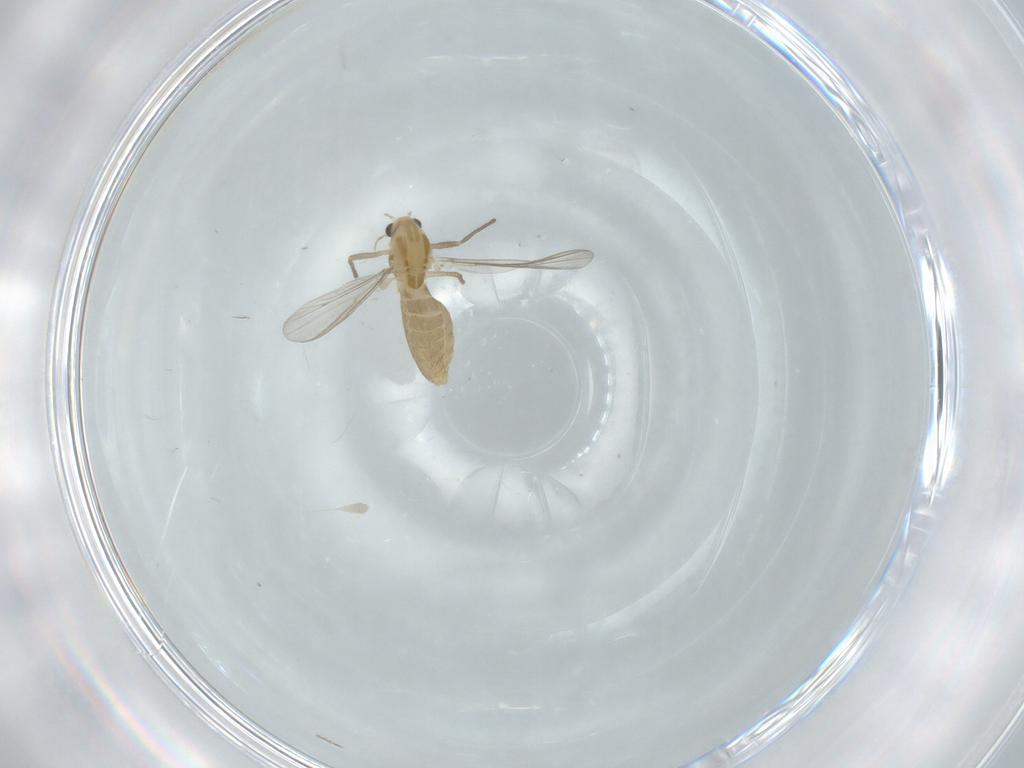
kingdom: Animalia
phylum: Arthropoda
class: Insecta
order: Diptera
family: Chironomidae
